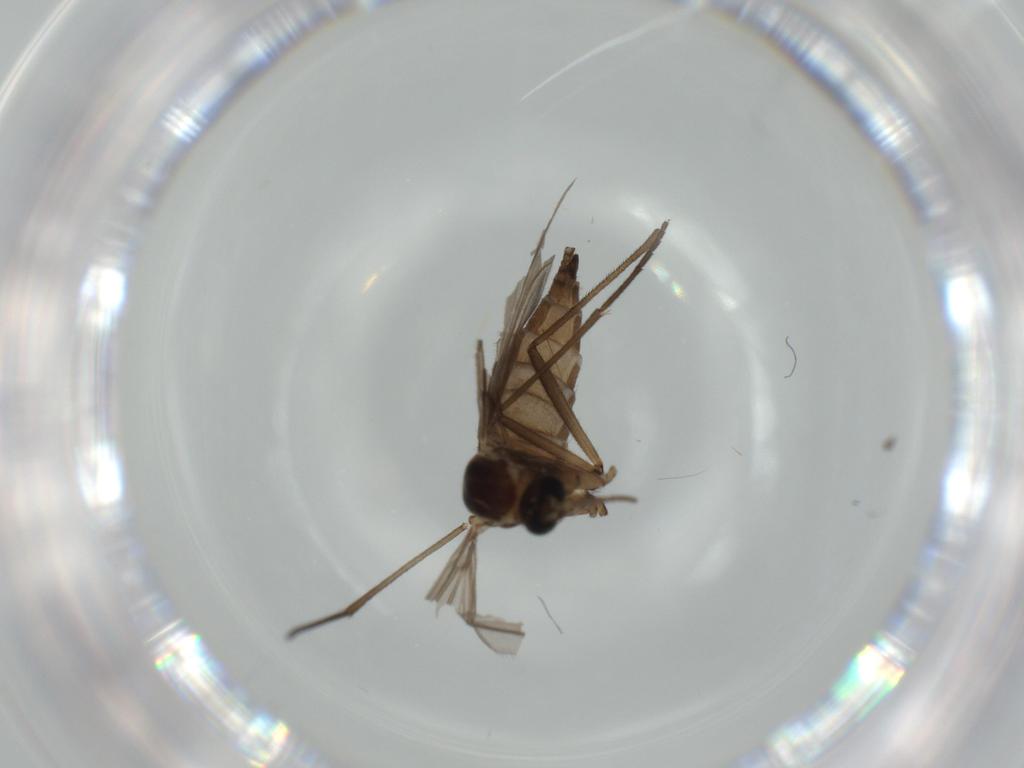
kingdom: Animalia
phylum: Arthropoda
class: Insecta
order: Diptera
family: Sciaridae
